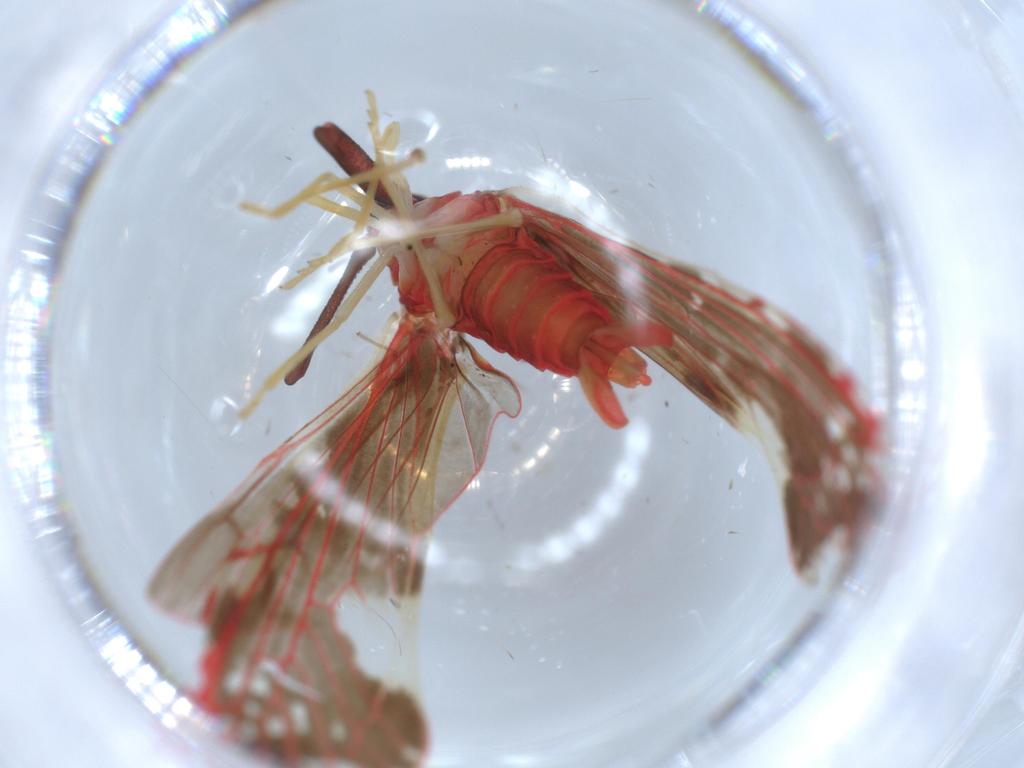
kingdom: Animalia
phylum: Arthropoda
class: Insecta
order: Hemiptera
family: Derbidae
